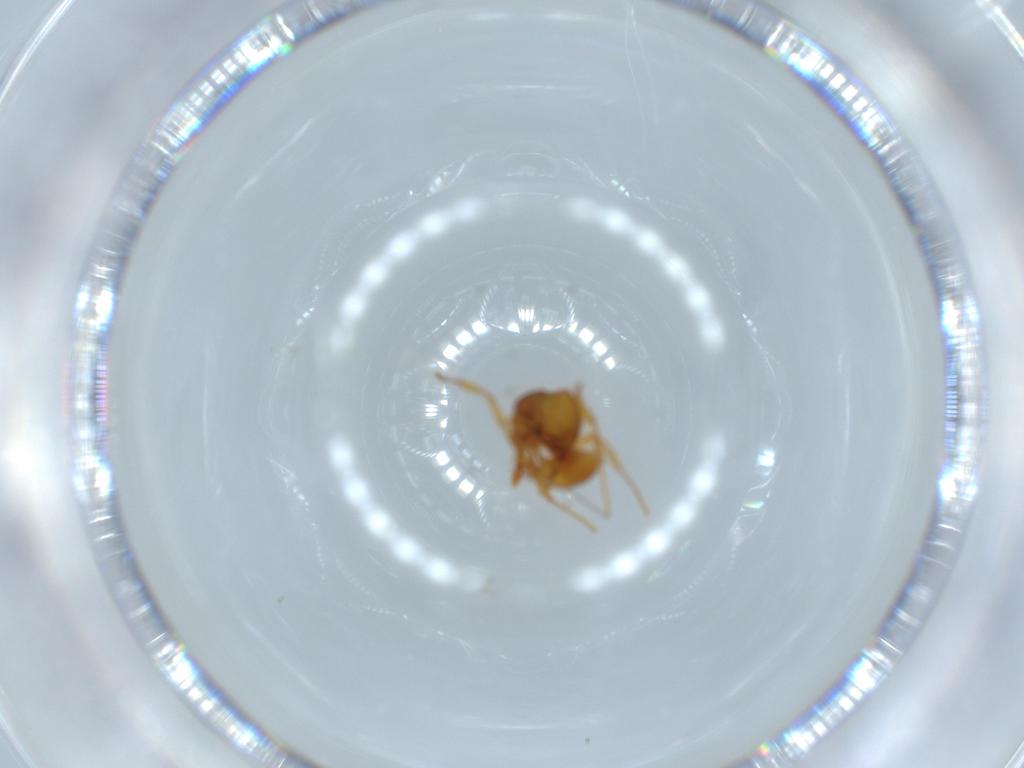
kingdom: Animalia
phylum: Arthropoda
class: Insecta
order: Hymenoptera
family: Formicidae
